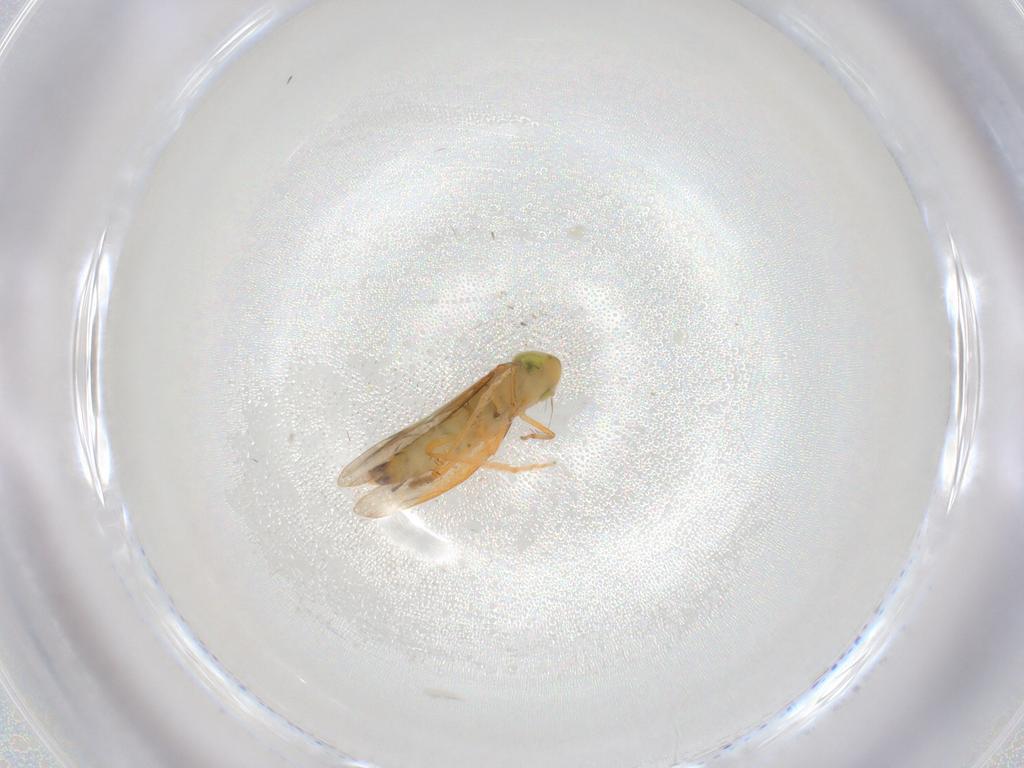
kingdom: Animalia
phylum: Arthropoda
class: Insecta
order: Hemiptera
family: Cicadellidae
